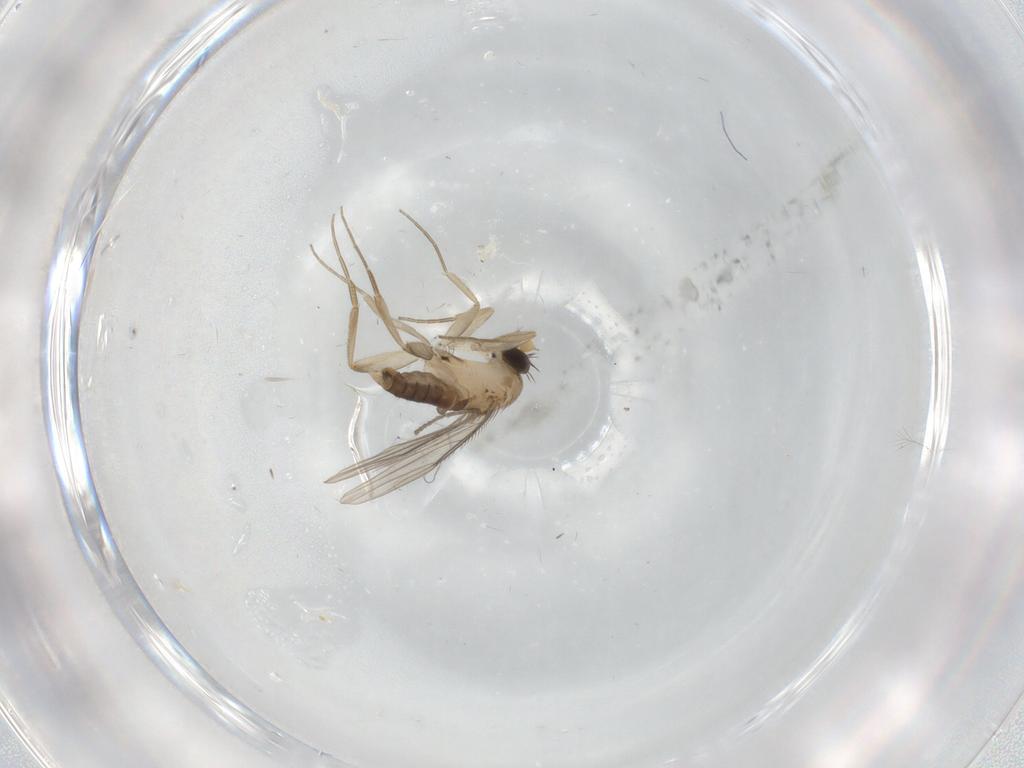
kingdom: Animalia
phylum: Arthropoda
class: Insecta
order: Diptera
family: Phoridae
